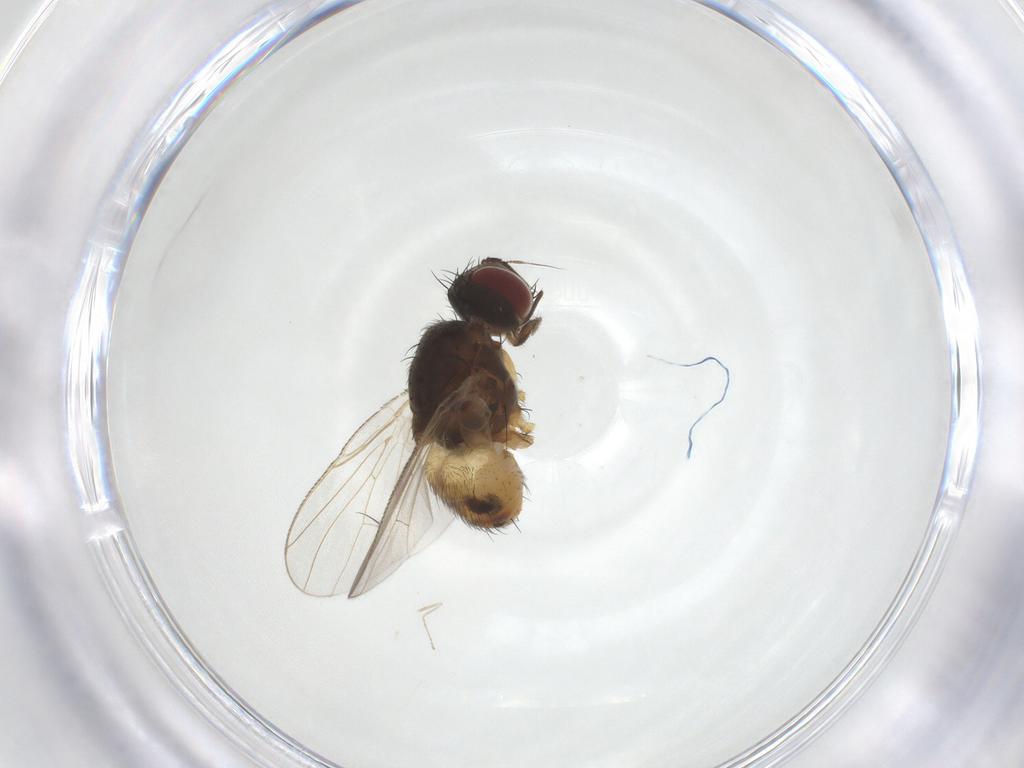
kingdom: Animalia
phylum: Arthropoda
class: Insecta
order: Diptera
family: Muscidae
